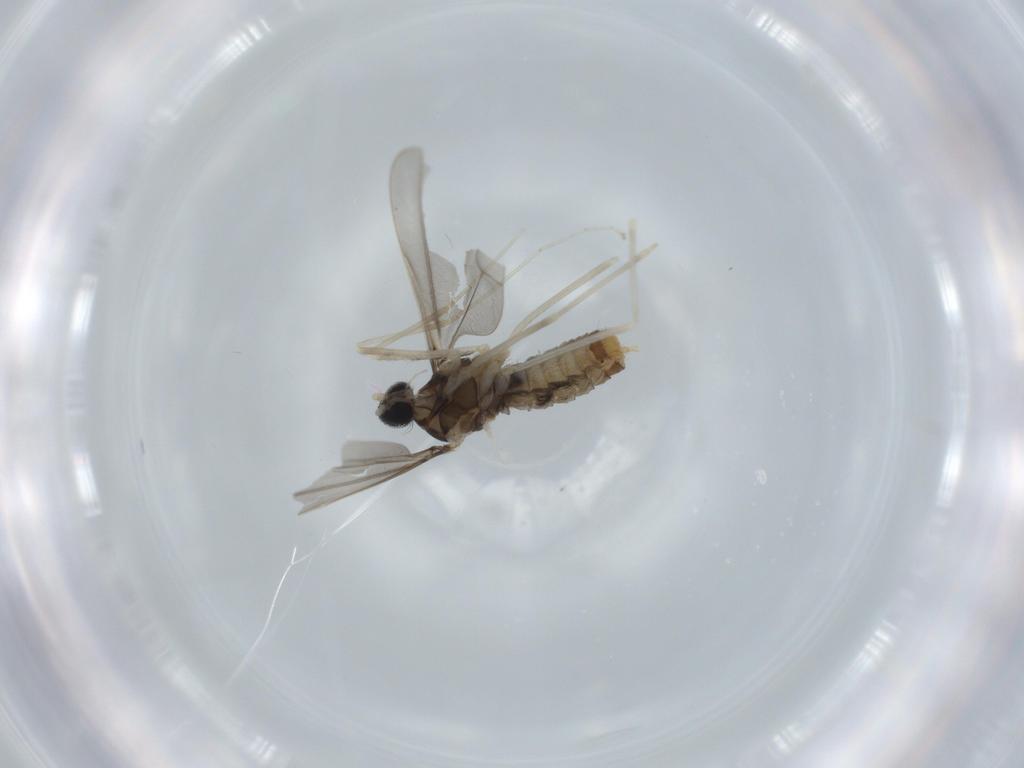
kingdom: Animalia
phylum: Arthropoda
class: Insecta
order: Diptera
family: Cecidomyiidae
